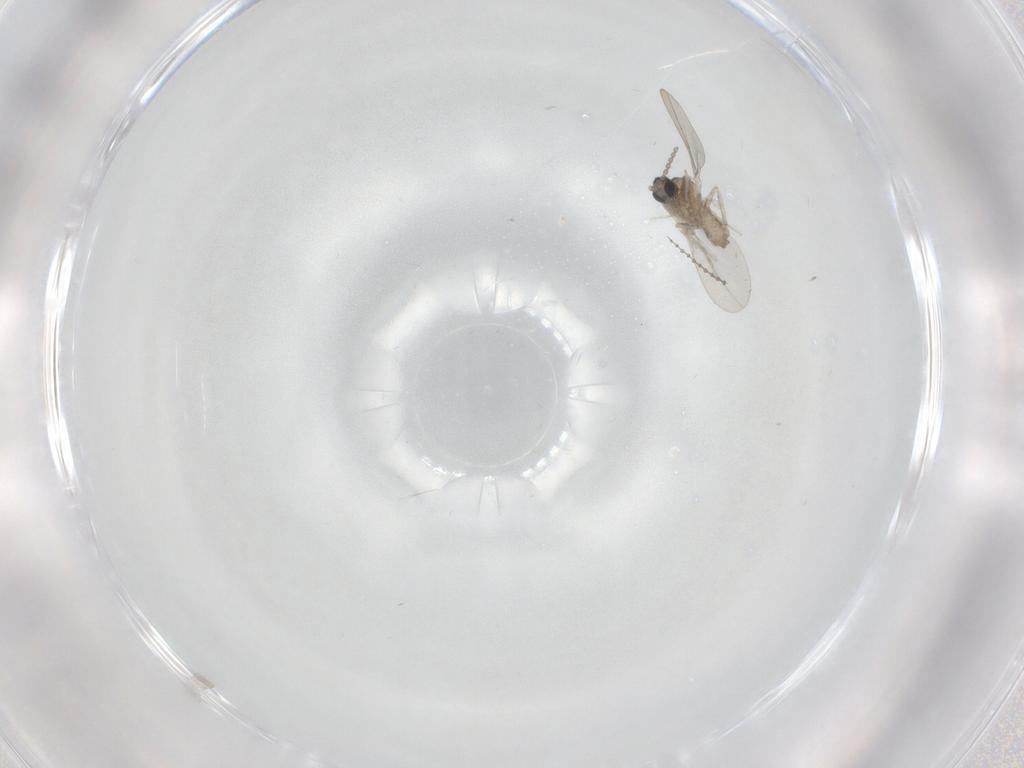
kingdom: Animalia
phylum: Arthropoda
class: Insecta
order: Diptera
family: Cecidomyiidae
